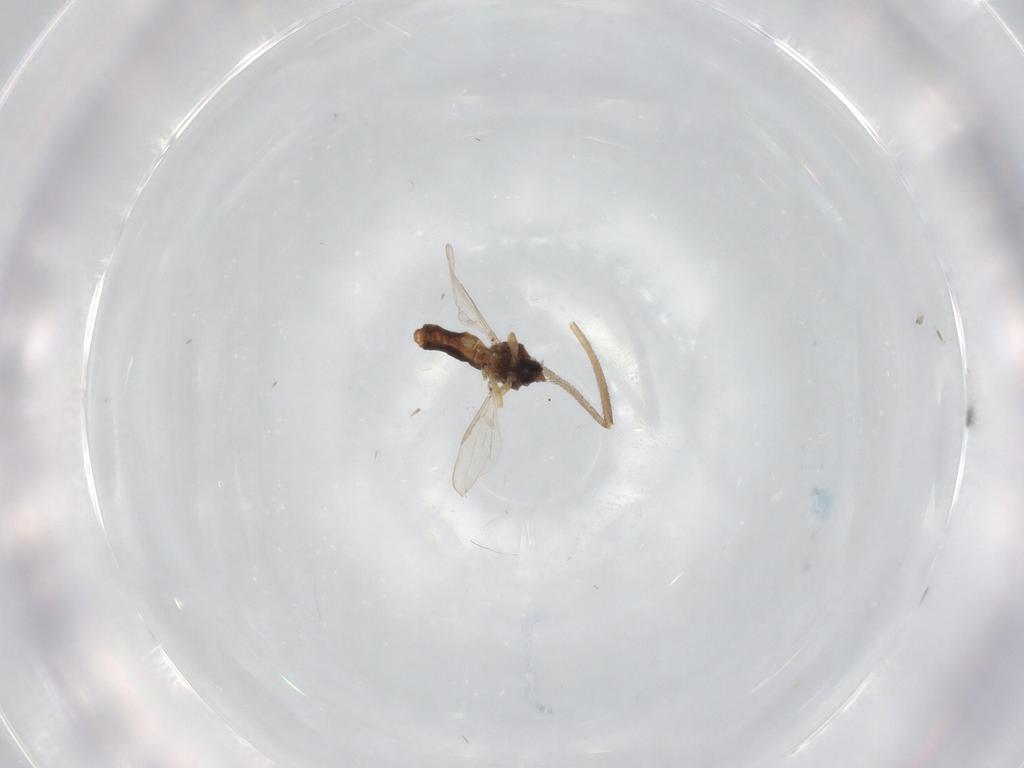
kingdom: Animalia
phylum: Arthropoda
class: Insecta
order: Diptera
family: Ceratopogonidae
